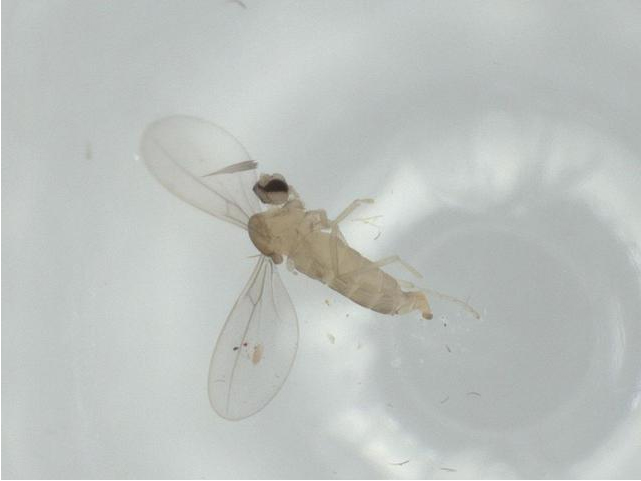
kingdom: Animalia
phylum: Arthropoda
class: Insecta
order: Diptera
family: Cecidomyiidae
